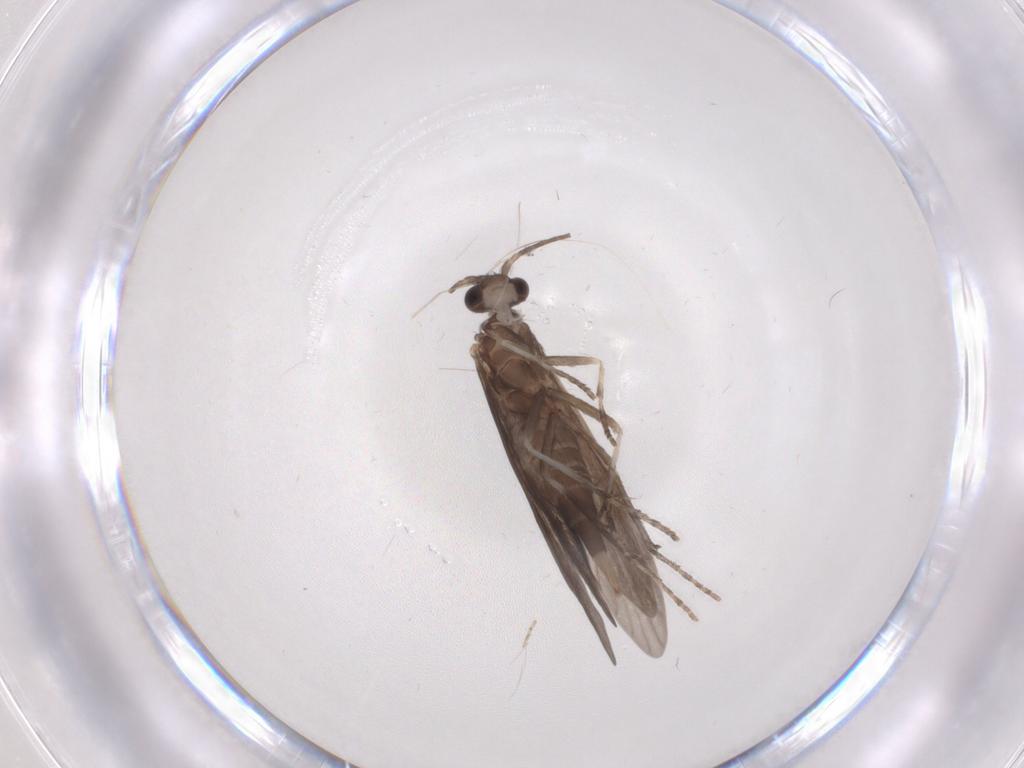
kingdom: Animalia
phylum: Arthropoda
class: Insecta
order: Trichoptera
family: Xiphocentronidae
